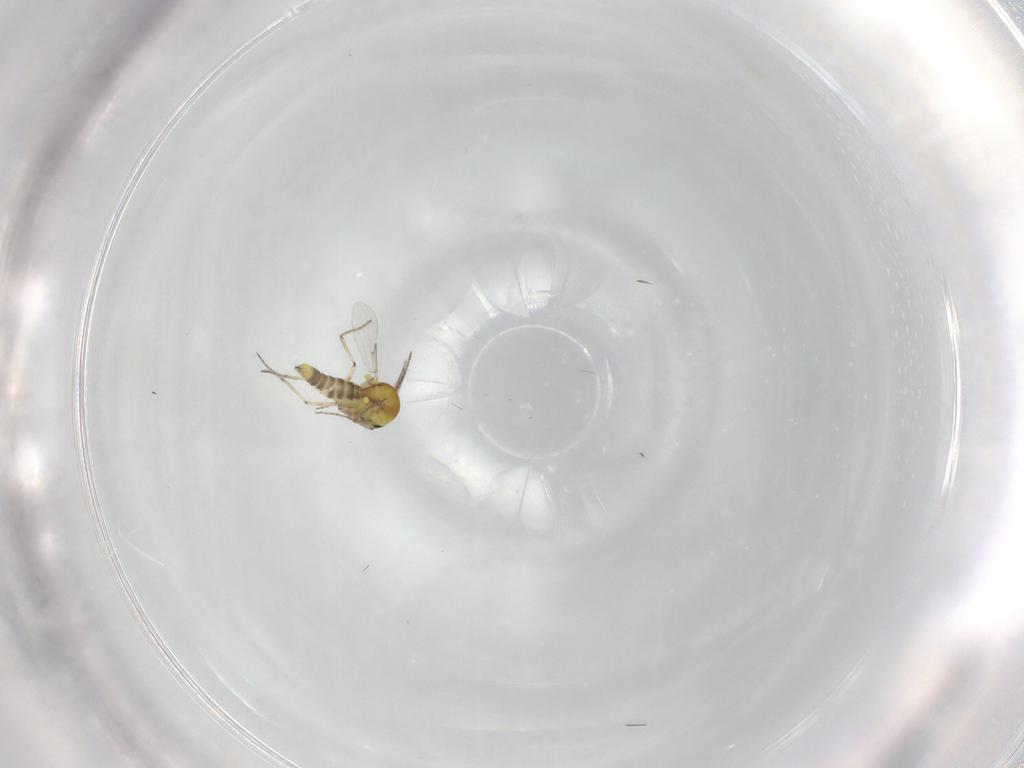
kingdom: Animalia
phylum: Arthropoda
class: Insecta
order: Diptera
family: Ceratopogonidae
